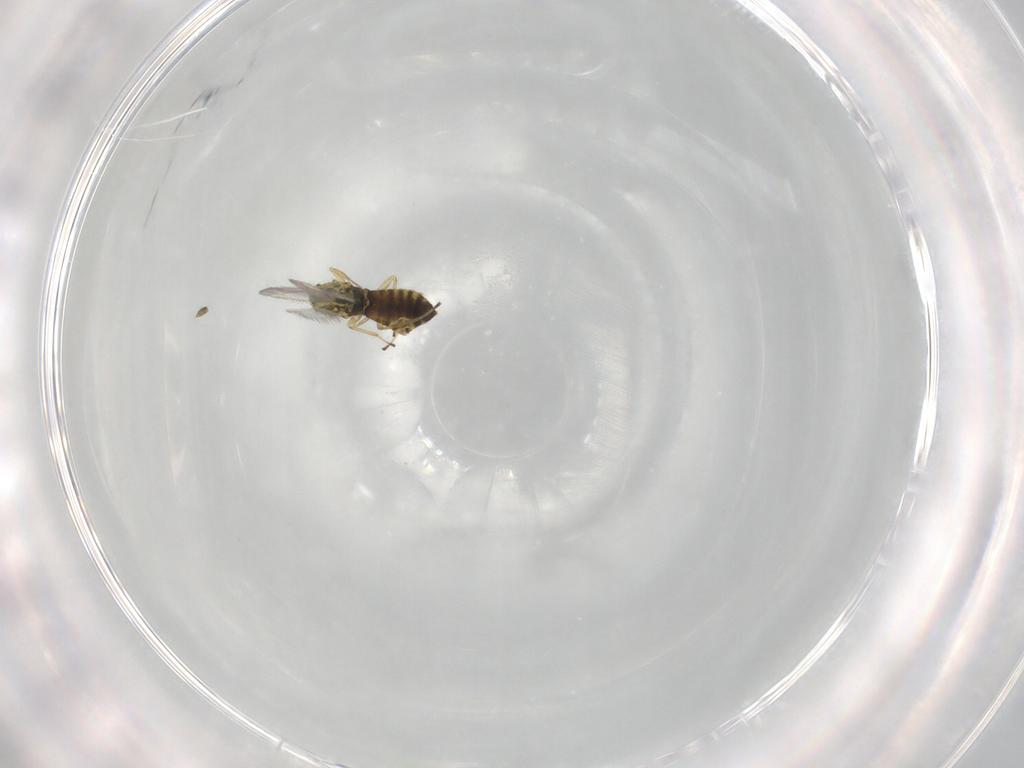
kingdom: Animalia
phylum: Arthropoda
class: Insecta
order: Hymenoptera
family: Eulophidae
